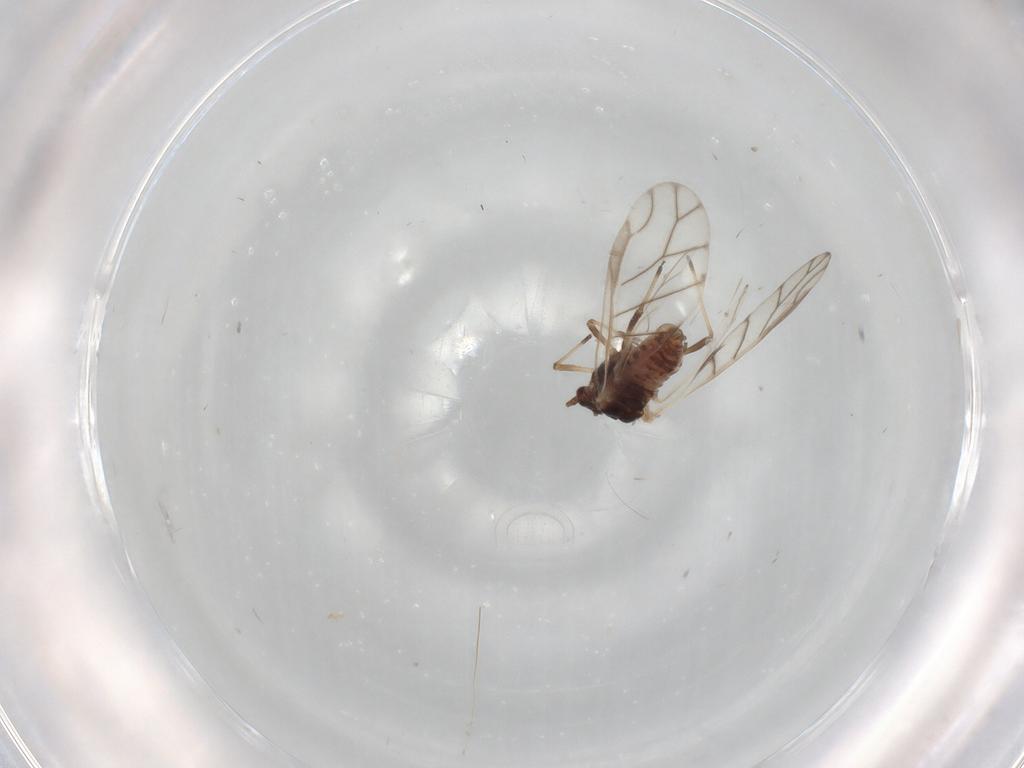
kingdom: Animalia
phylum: Arthropoda
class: Insecta
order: Hemiptera
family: Aphididae
